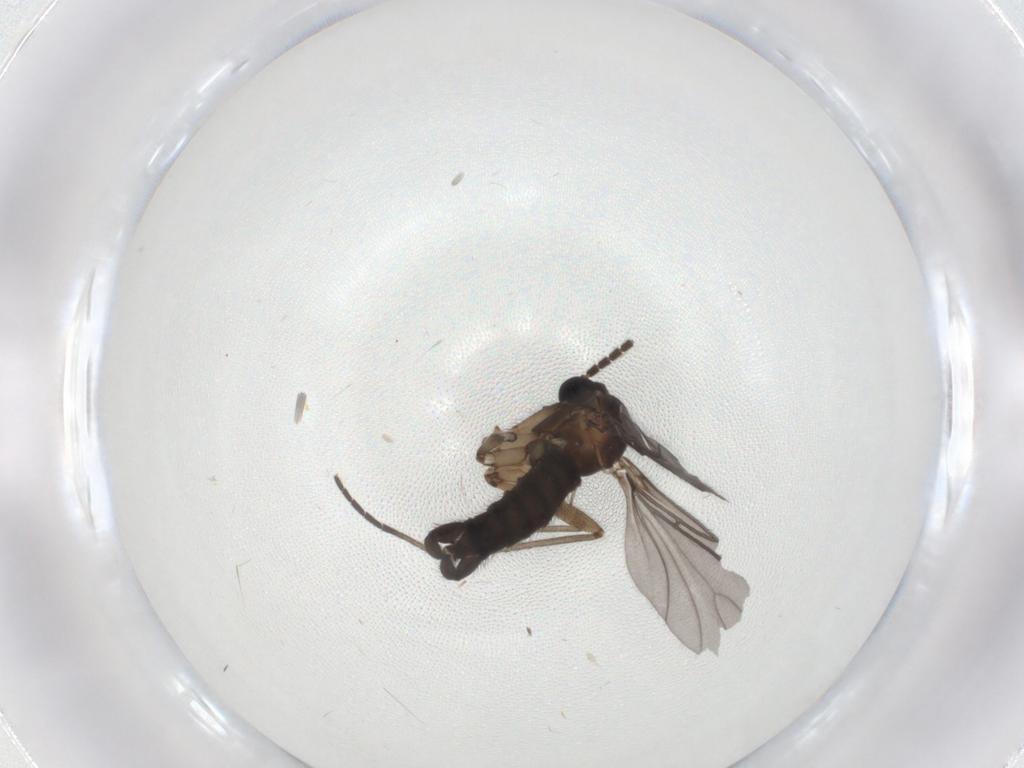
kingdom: Animalia
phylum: Arthropoda
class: Insecta
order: Diptera
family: Sciaridae
